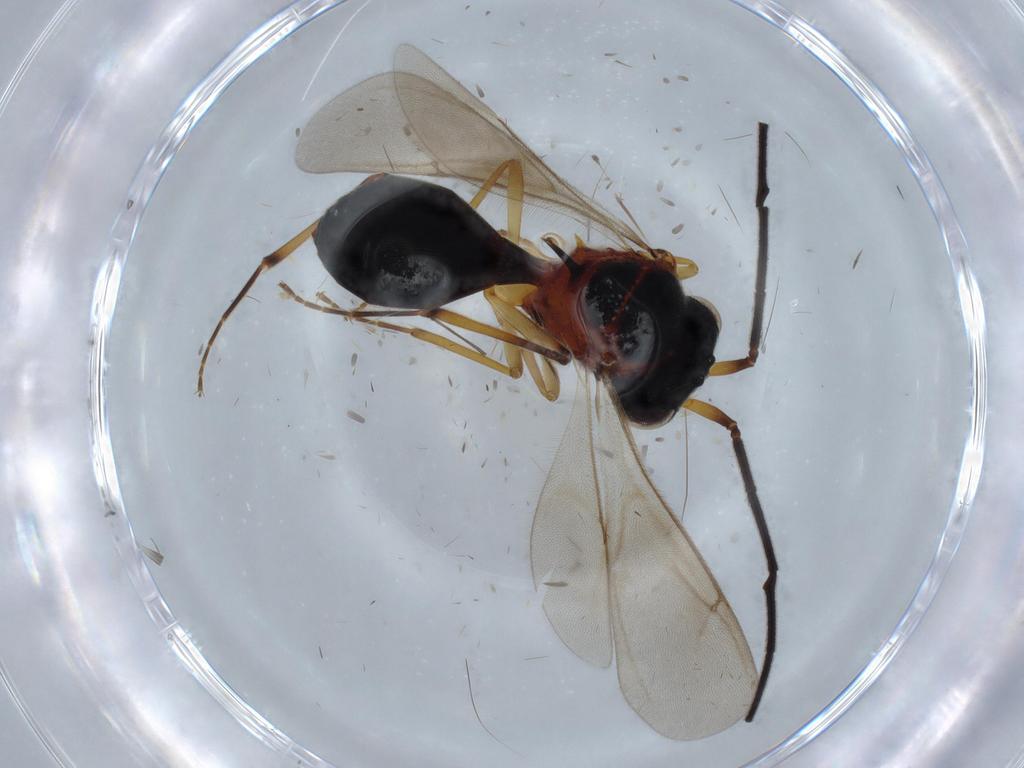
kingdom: Animalia
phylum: Arthropoda
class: Insecta
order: Hymenoptera
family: Scelionidae
